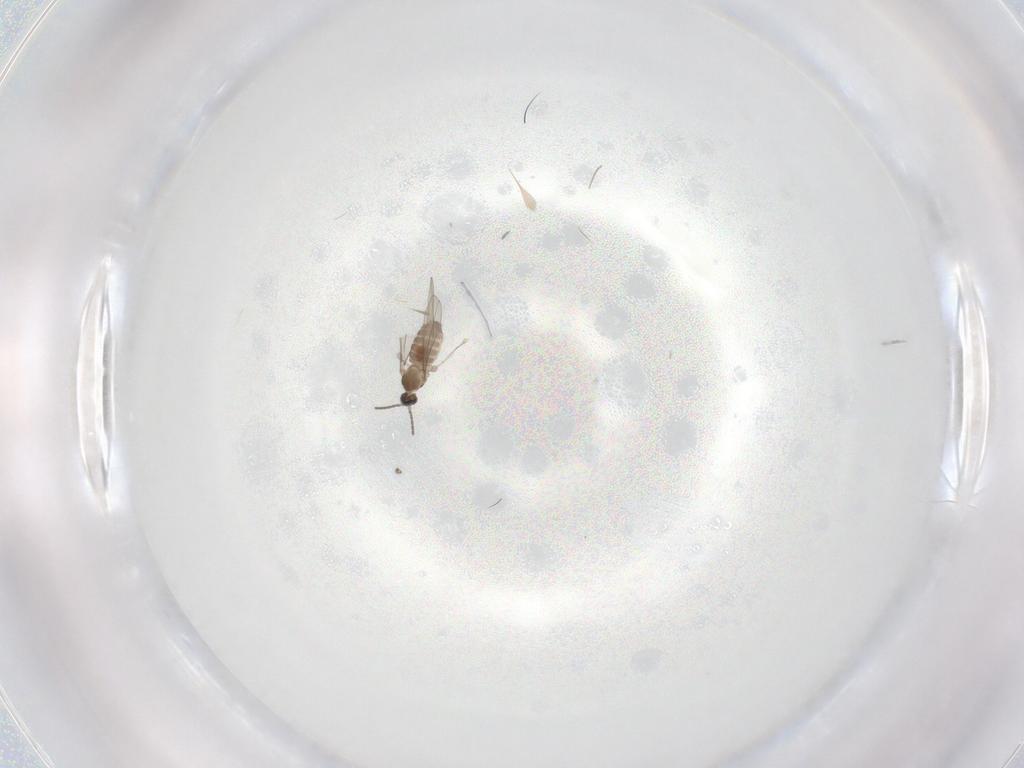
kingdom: Animalia
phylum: Arthropoda
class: Insecta
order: Diptera
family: Cecidomyiidae
